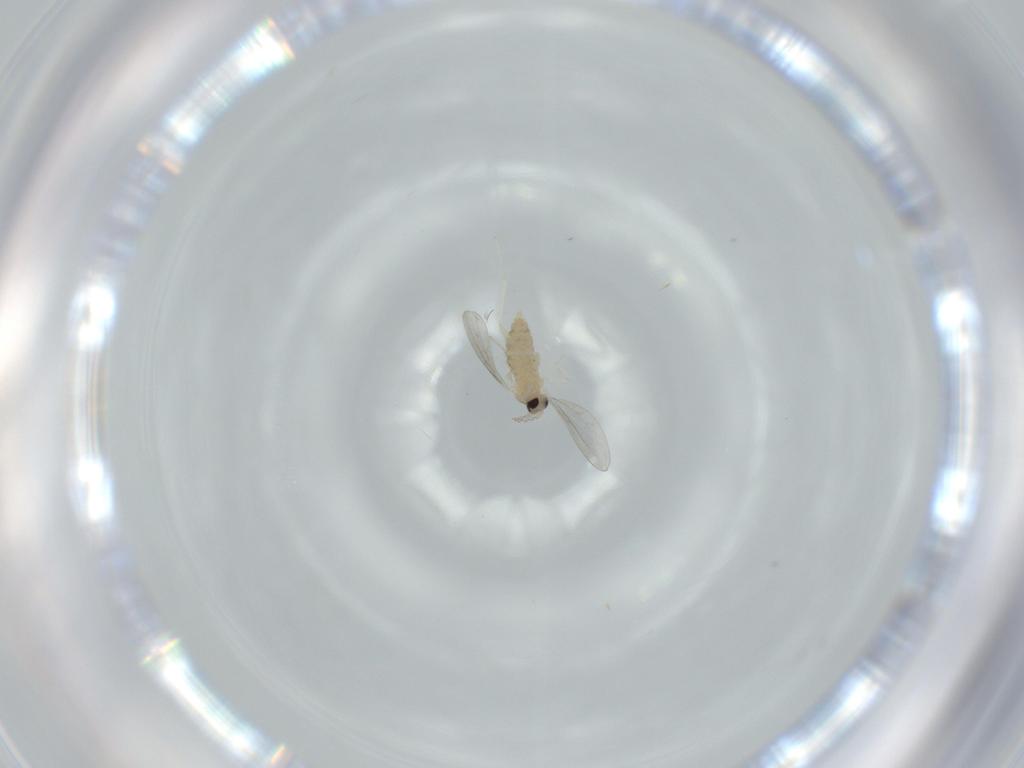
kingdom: Animalia
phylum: Arthropoda
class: Insecta
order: Diptera
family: Cecidomyiidae
